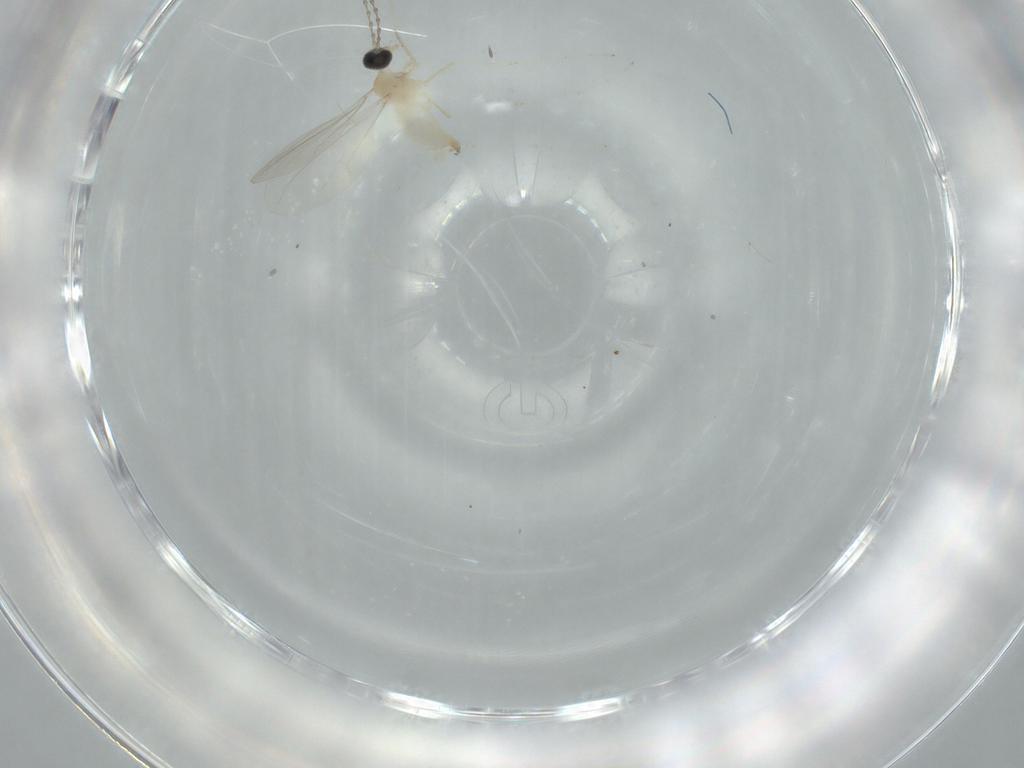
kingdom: Animalia
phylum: Arthropoda
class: Insecta
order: Diptera
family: Cecidomyiidae
